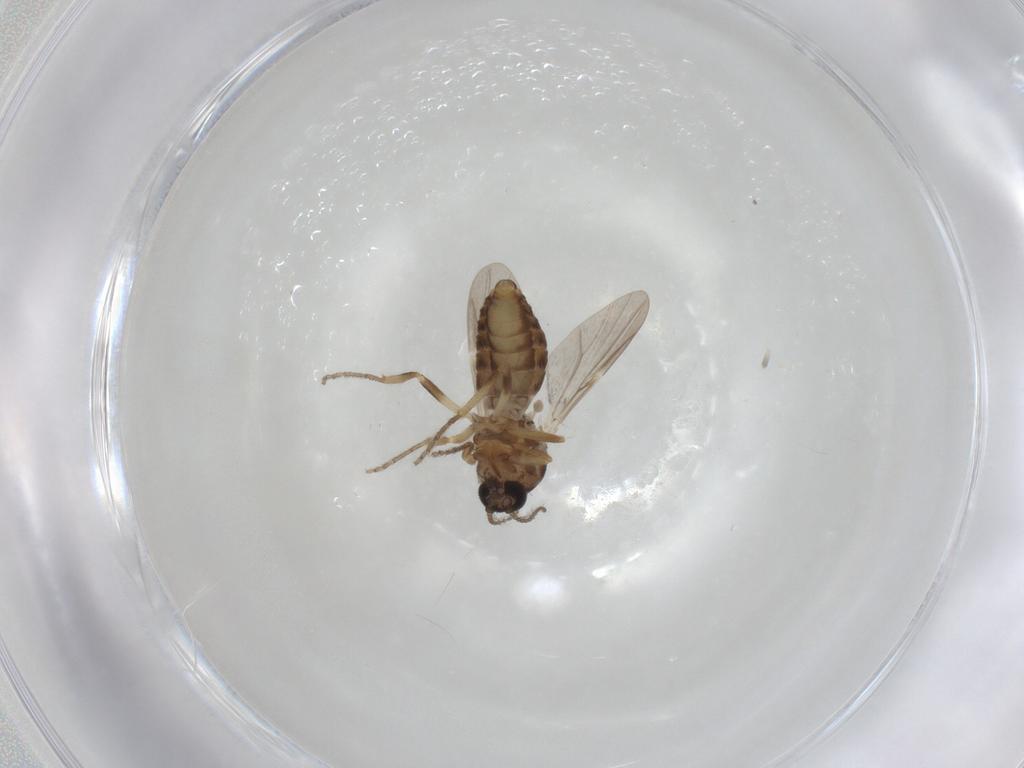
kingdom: Animalia
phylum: Arthropoda
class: Insecta
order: Diptera
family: Ceratopogonidae
